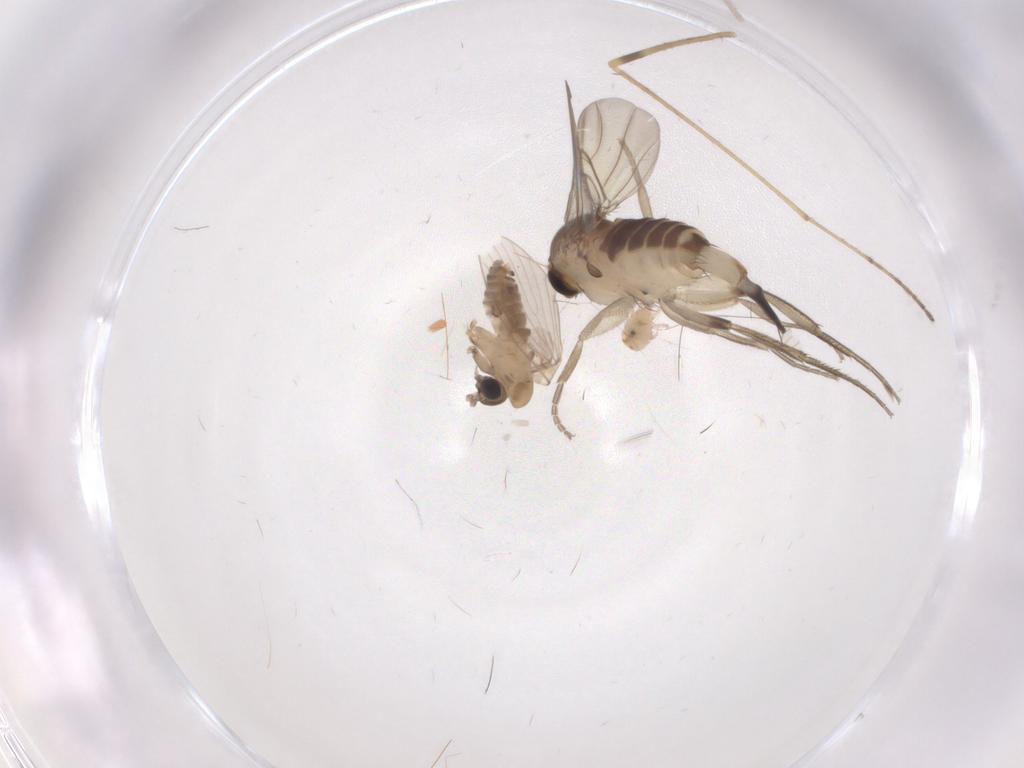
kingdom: Animalia
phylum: Arthropoda
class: Insecta
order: Diptera
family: Phoridae
